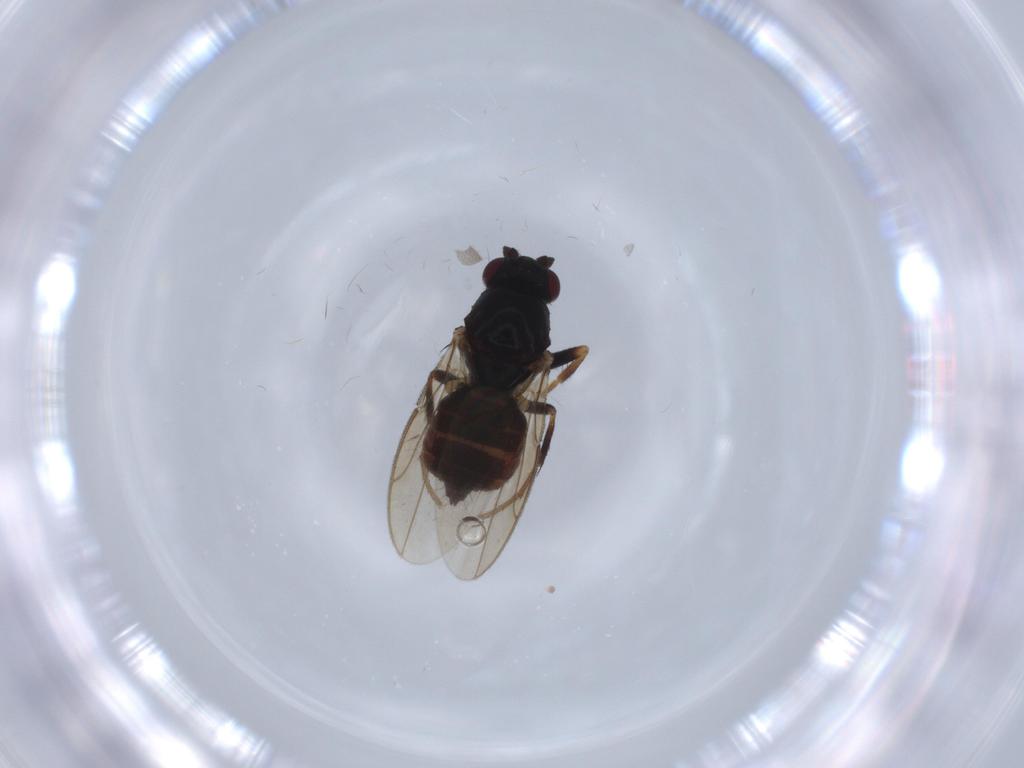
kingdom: Animalia
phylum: Arthropoda
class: Insecta
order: Diptera
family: Sphaeroceridae
